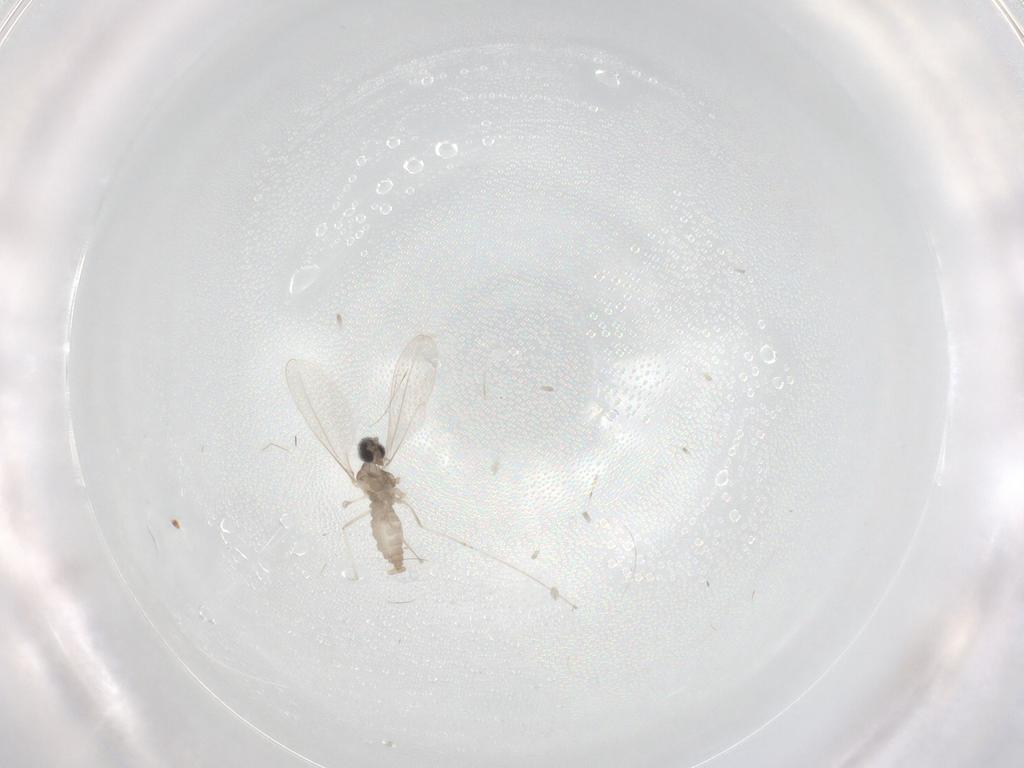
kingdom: Animalia
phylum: Arthropoda
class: Insecta
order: Diptera
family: Cecidomyiidae
